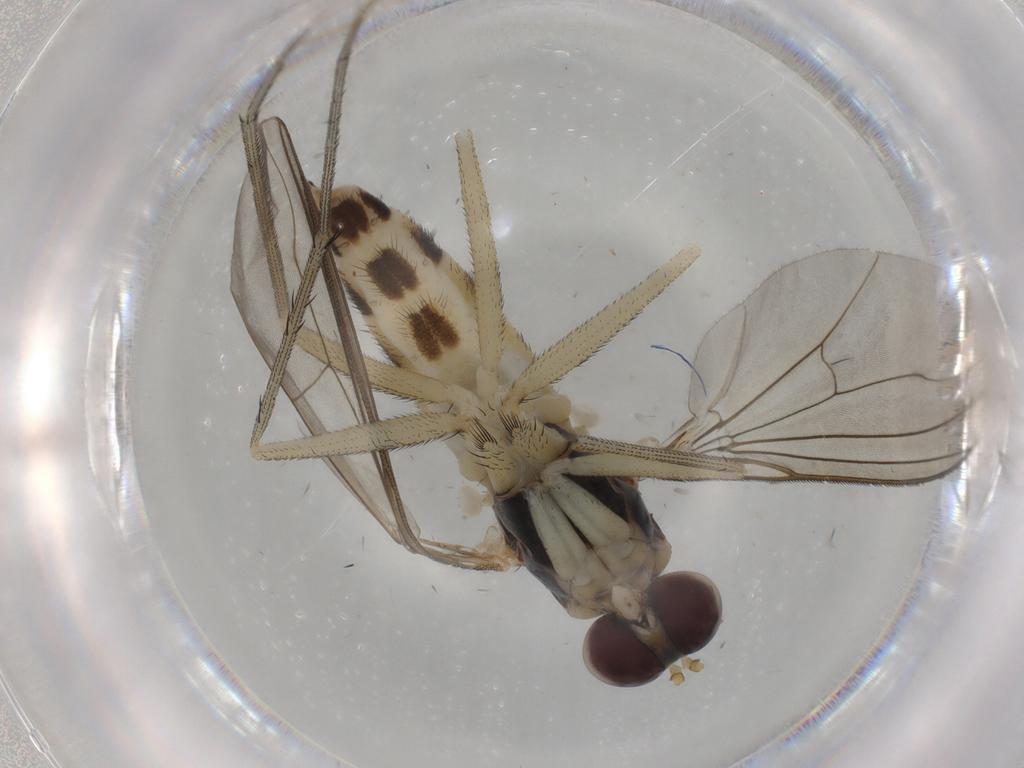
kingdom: Animalia
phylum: Arthropoda
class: Insecta
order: Diptera
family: Dolichopodidae
